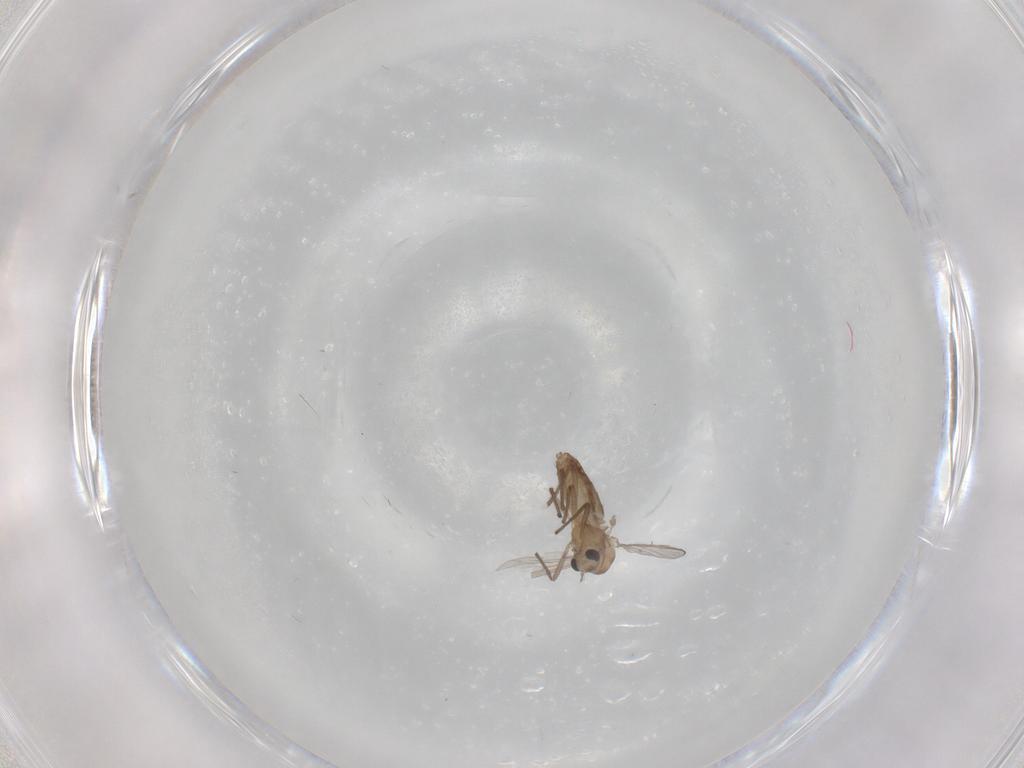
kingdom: Animalia
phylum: Arthropoda
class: Insecta
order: Diptera
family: Chironomidae
